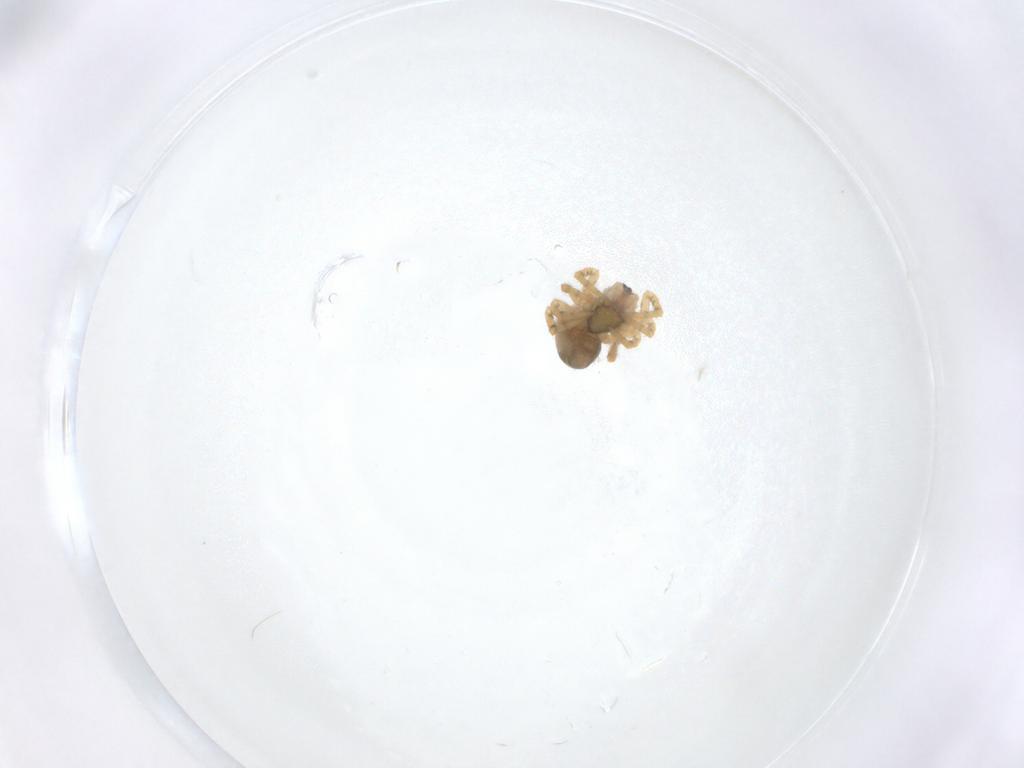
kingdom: Animalia
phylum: Arthropoda
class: Arachnida
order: Araneae
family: Theridiidae
